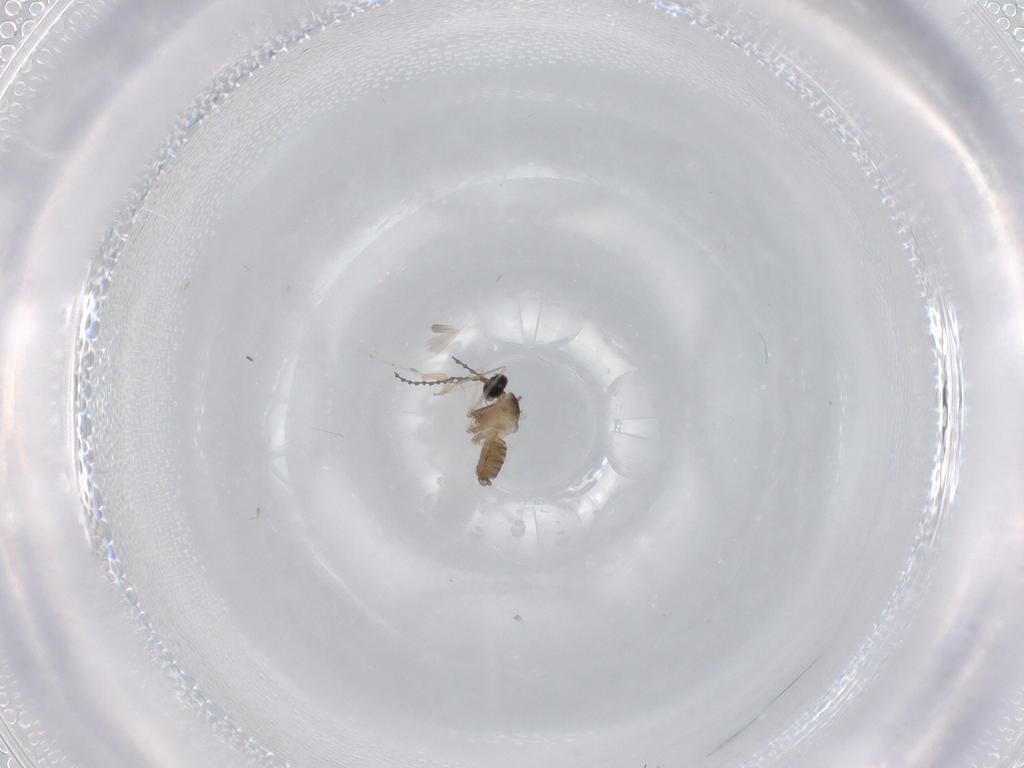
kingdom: Animalia
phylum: Arthropoda
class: Insecta
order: Diptera
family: Cecidomyiidae
